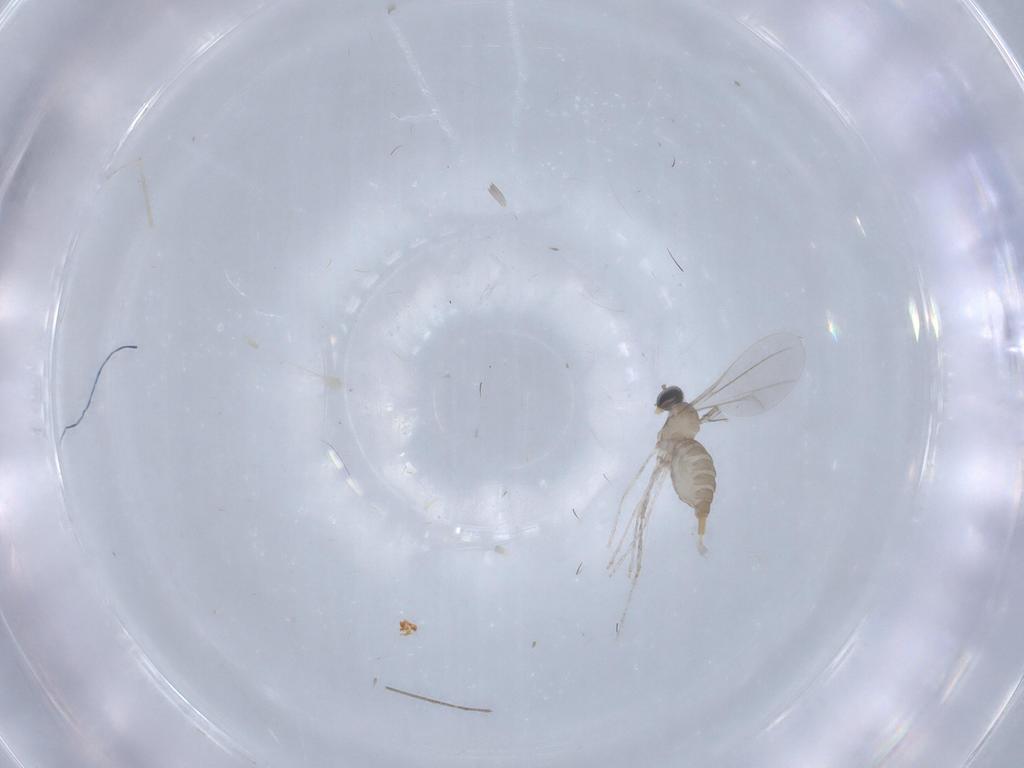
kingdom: Animalia
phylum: Arthropoda
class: Insecta
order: Diptera
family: Cecidomyiidae
